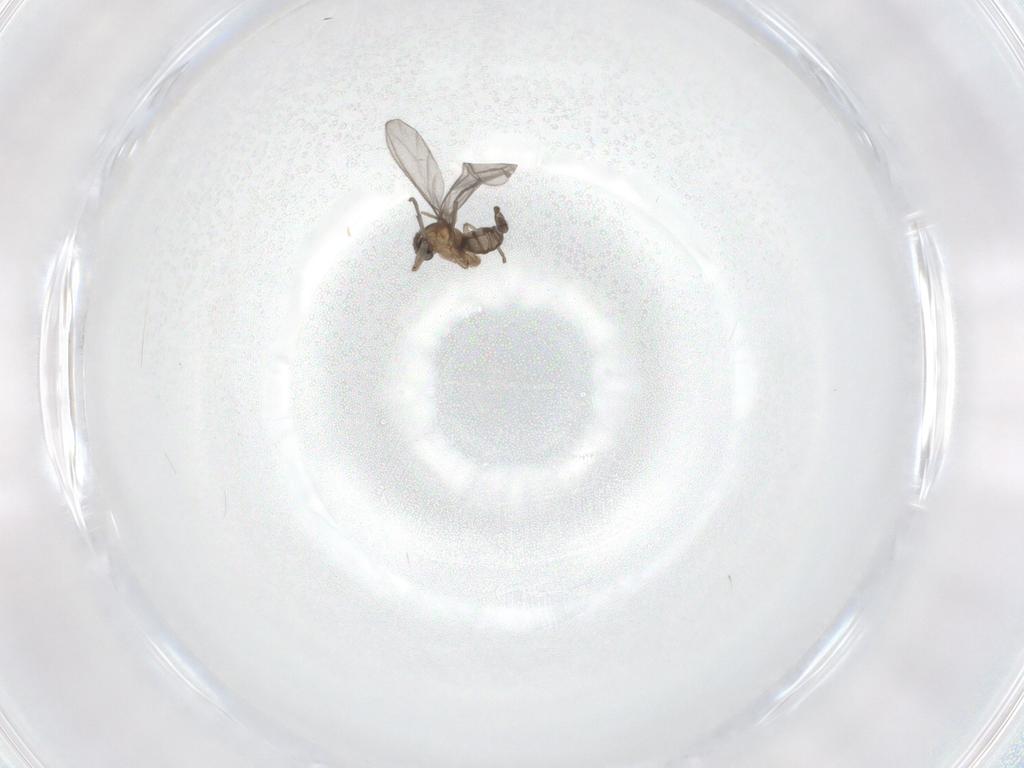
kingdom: Animalia
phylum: Arthropoda
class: Insecta
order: Diptera
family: Sciaridae
